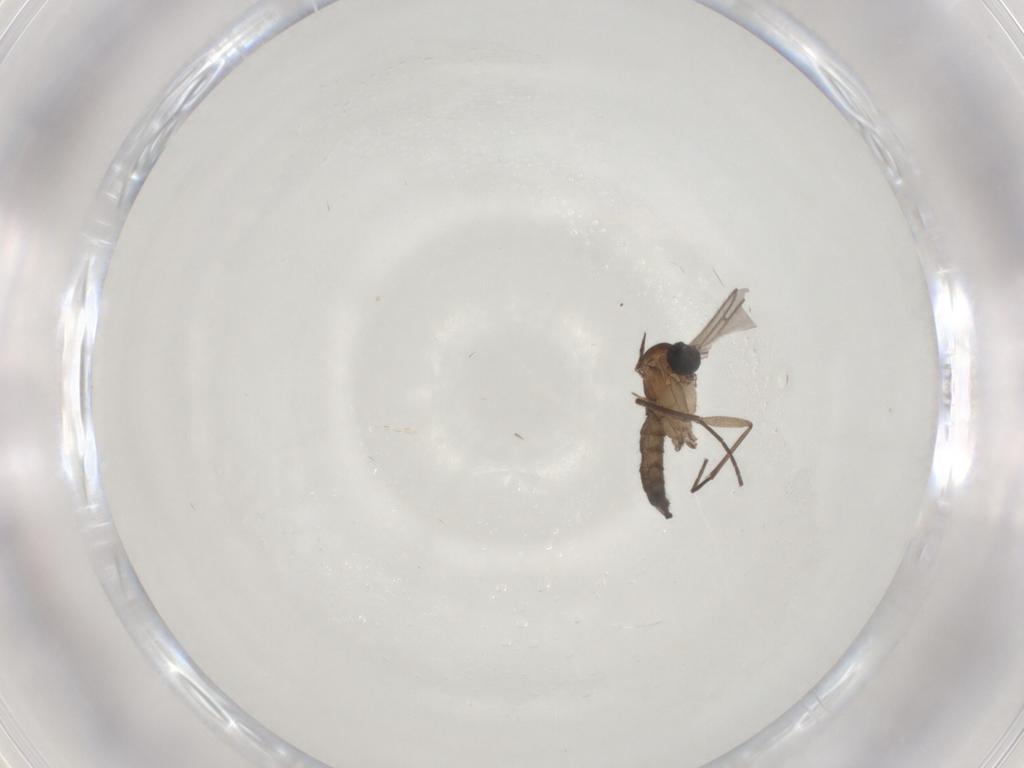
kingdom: Animalia
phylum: Arthropoda
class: Insecta
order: Diptera
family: Sciaridae
